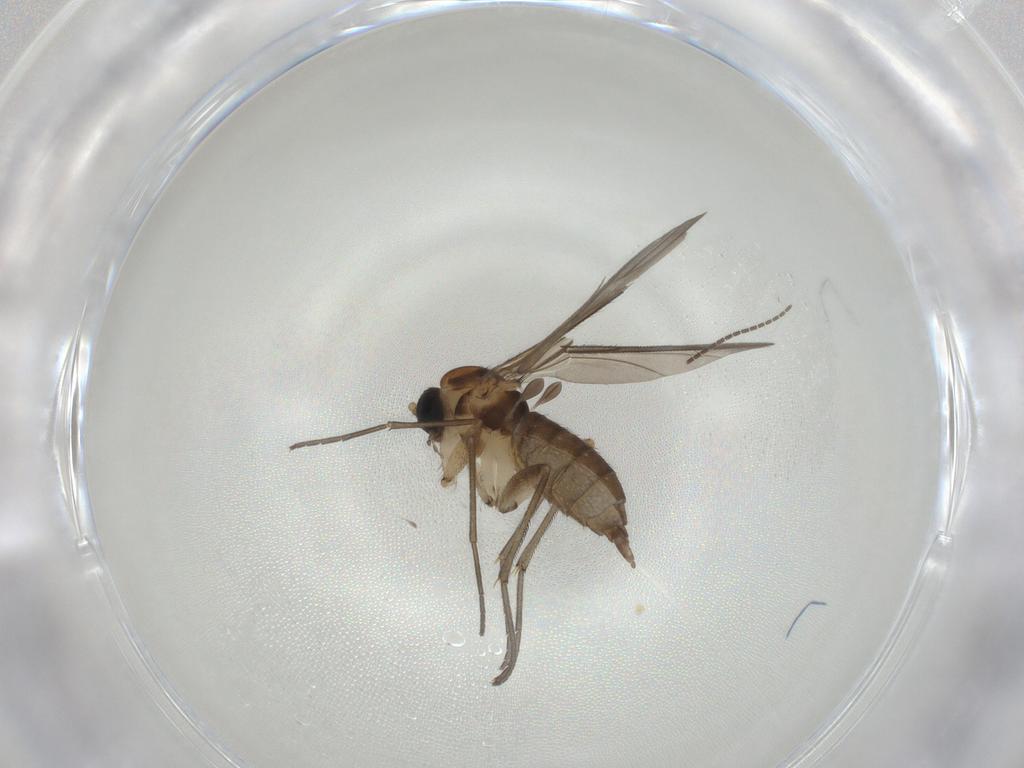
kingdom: Animalia
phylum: Arthropoda
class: Insecta
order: Diptera
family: Sciaridae
